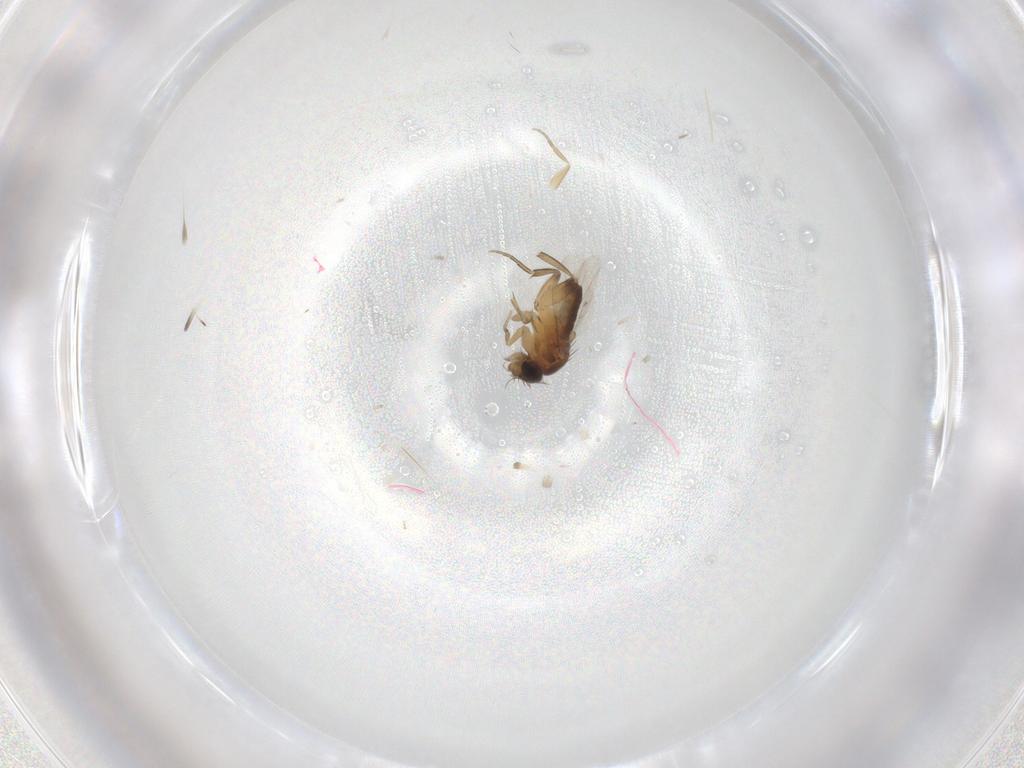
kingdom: Animalia
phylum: Arthropoda
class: Insecta
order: Diptera
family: Phoridae
